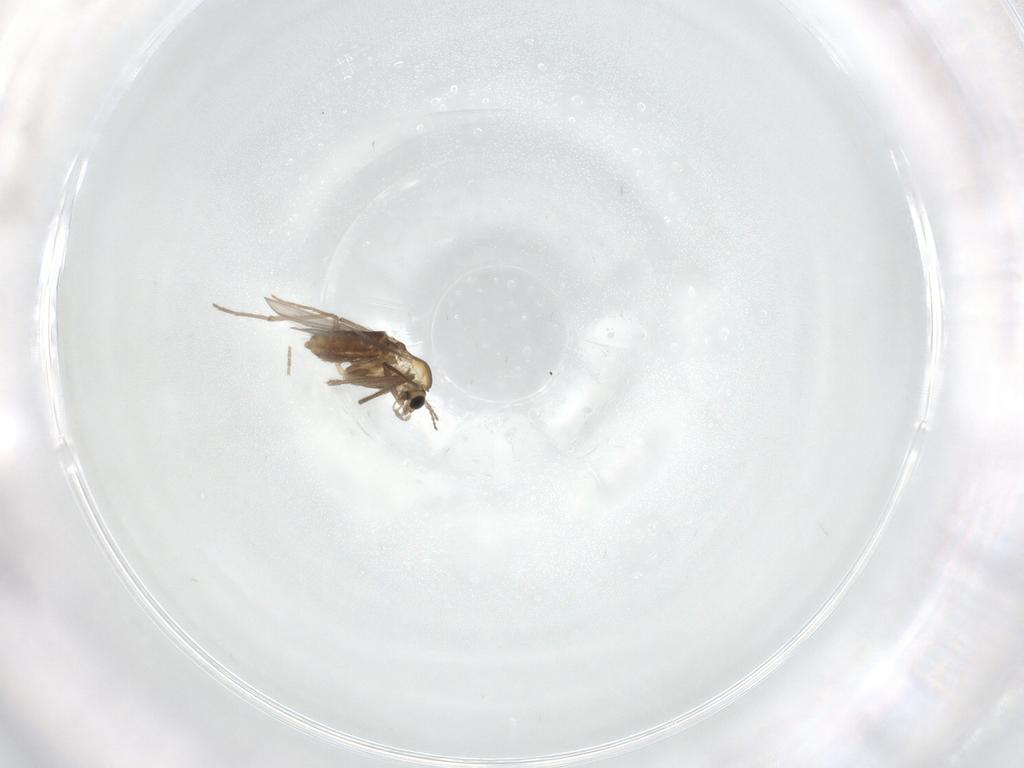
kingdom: Animalia
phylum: Arthropoda
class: Insecta
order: Diptera
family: Chironomidae
